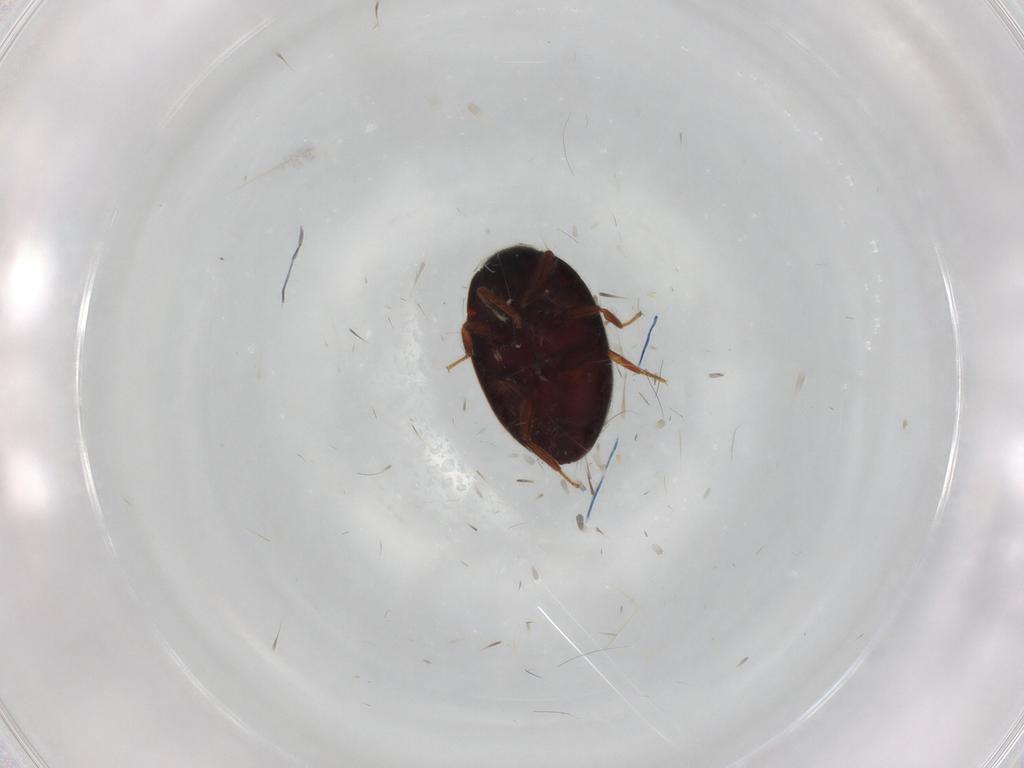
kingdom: Animalia
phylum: Arthropoda
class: Insecta
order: Coleoptera
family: Limnichidae
